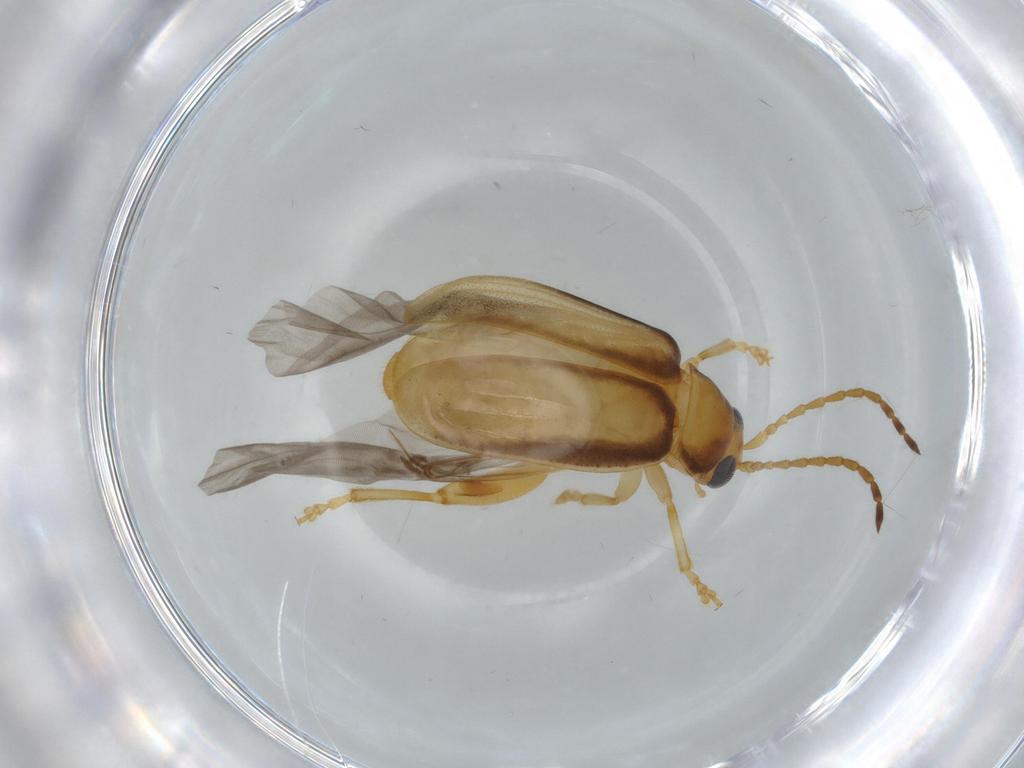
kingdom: Animalia
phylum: Arthropoda
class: Insecta
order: Coleoptera
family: Chrysomelidae
